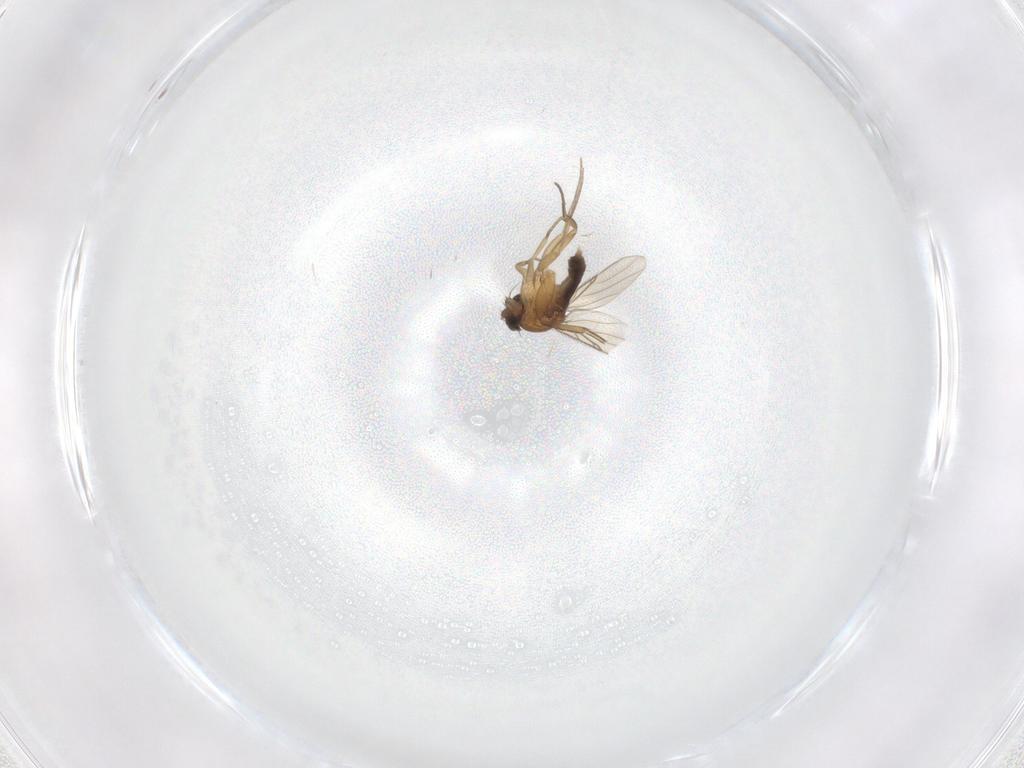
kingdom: Animalia
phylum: Arthropoda
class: Insecta
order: Diptera
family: Phoridae
